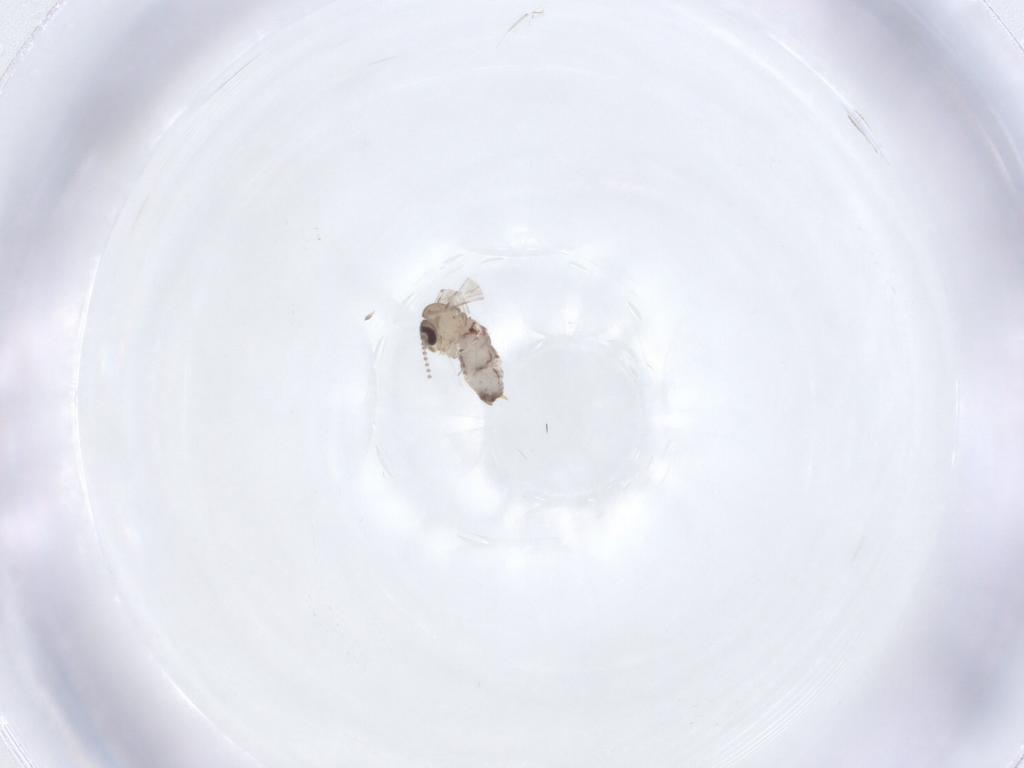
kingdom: Animalia
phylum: Arthropoda
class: Insecta
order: Diptera
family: Psychodidae
